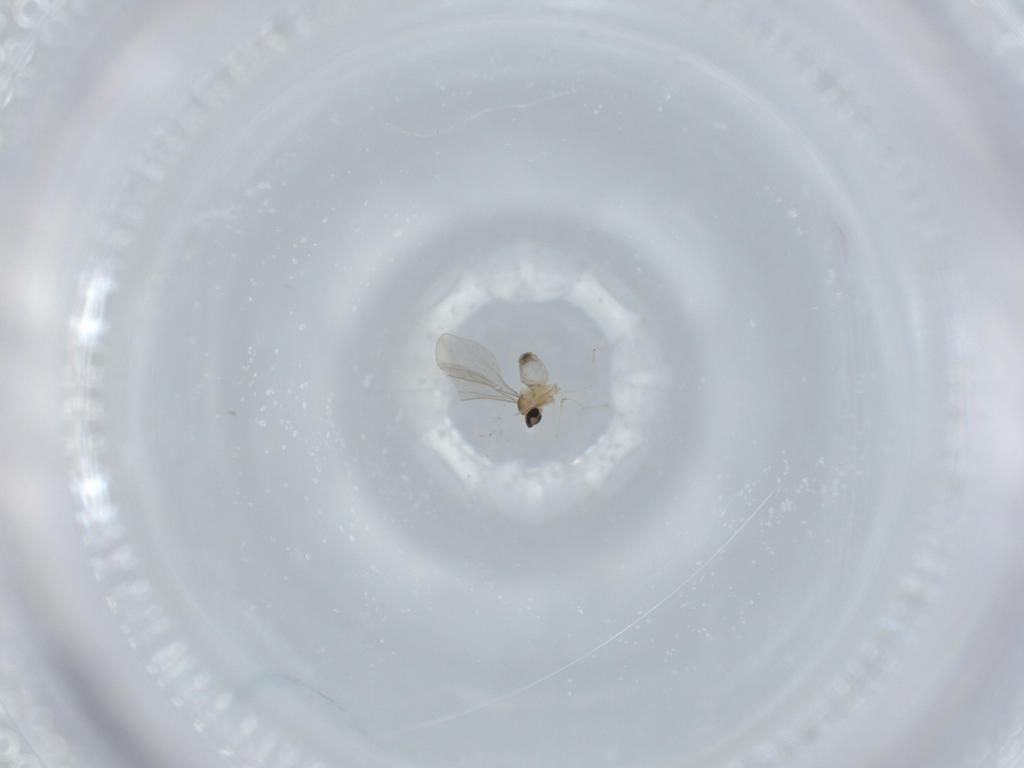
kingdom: Animalia
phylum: Arthropoda
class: Insecta
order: Diptera
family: Cecidomyiidae
